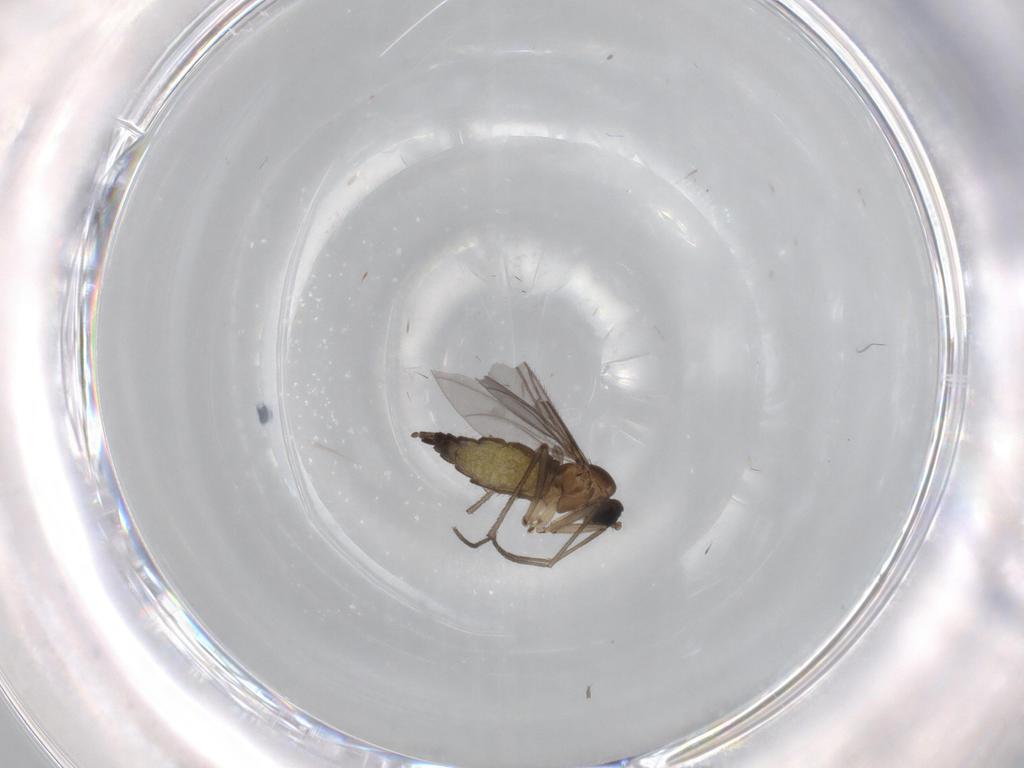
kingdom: Animalia
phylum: Arthropoda
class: Insecta
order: Diptera
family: Sciaridae
